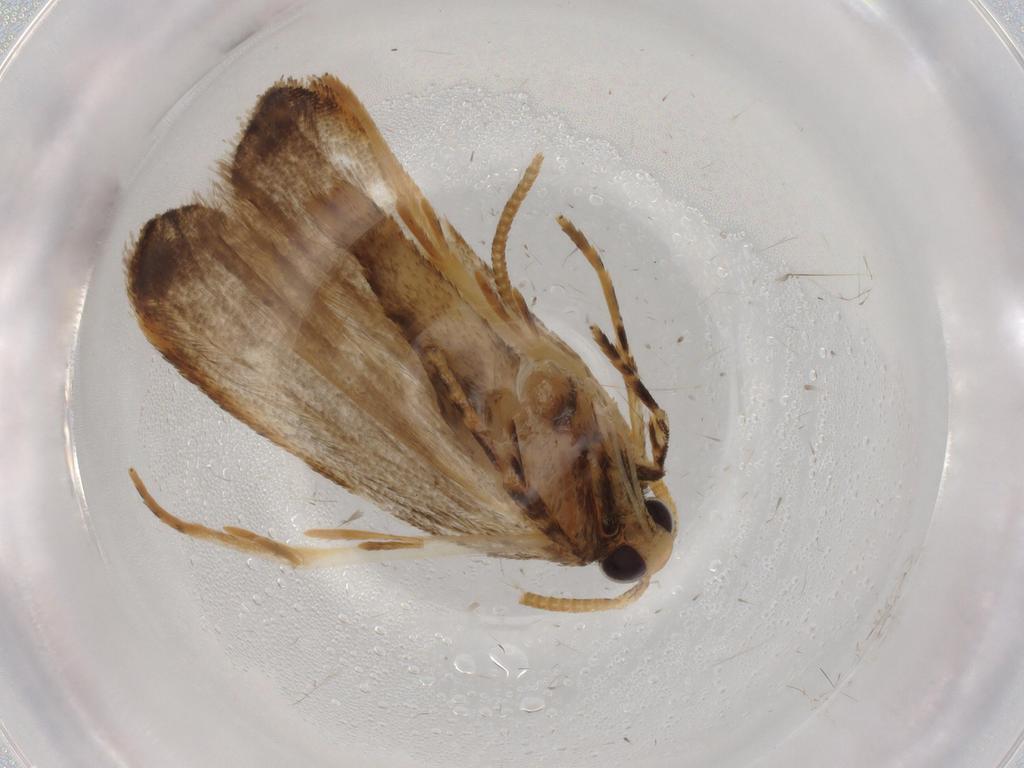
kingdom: Animalia
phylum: Arthropoda
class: Insecta
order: Lepidoptera
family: Autostichidae
